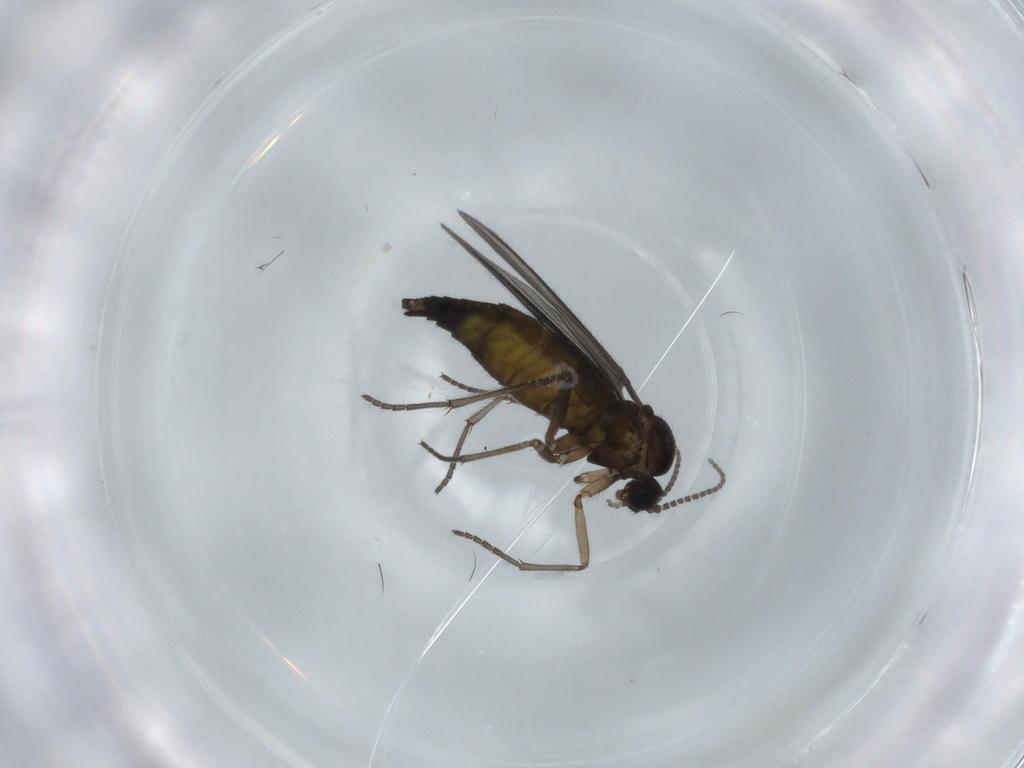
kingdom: Animalia
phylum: Arthropoda
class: Insecta
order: Diptera
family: Sciaridae
